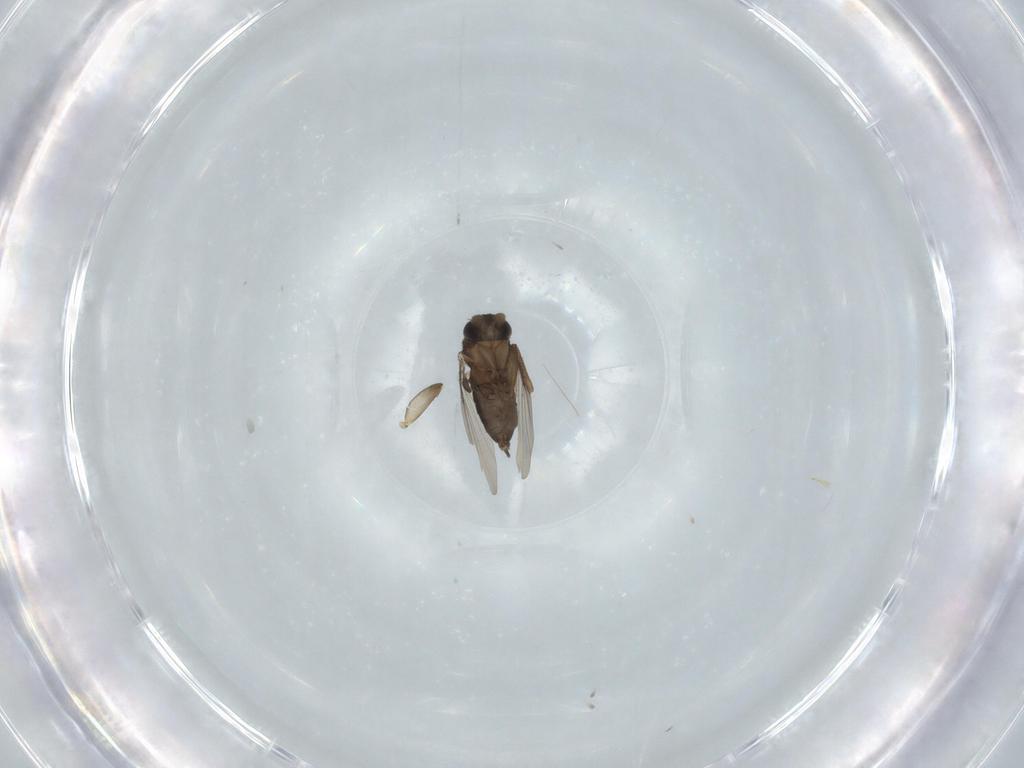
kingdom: Animalia
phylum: Arthropoda
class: Insecta
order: Diptera
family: Phoridae
